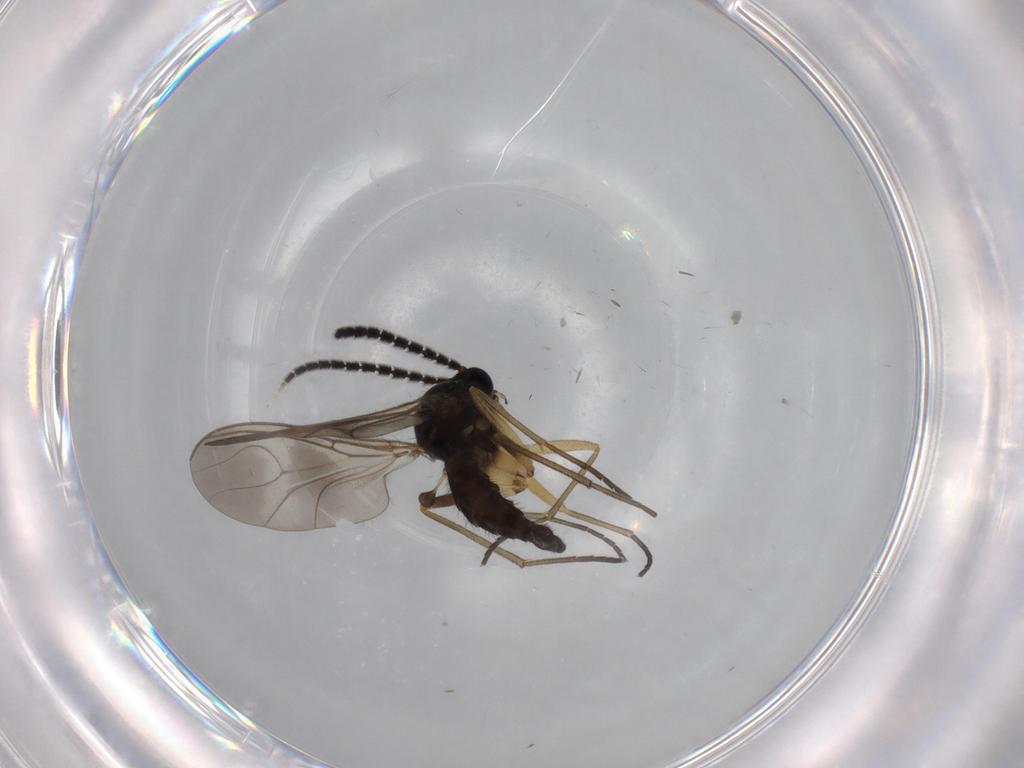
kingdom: Animalia
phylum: Arthropoda
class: Insecta
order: Diptera
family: Sciaridae
